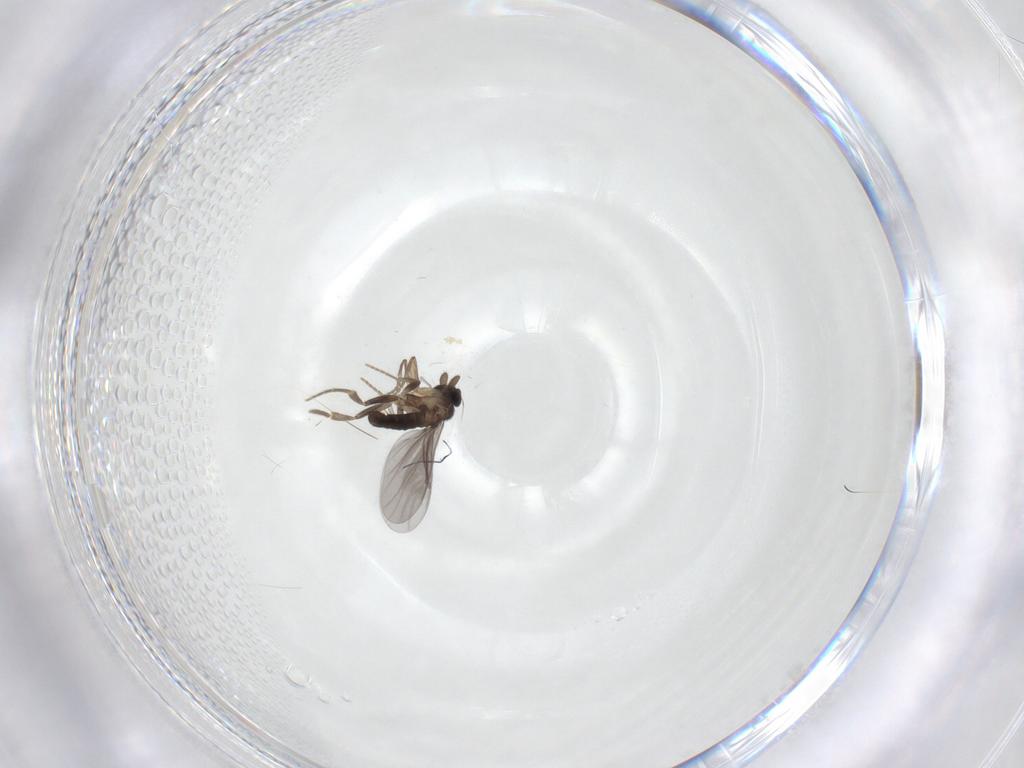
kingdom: Animalia
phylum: Arthropoda
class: Insecta
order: Diptera
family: Phoridae
